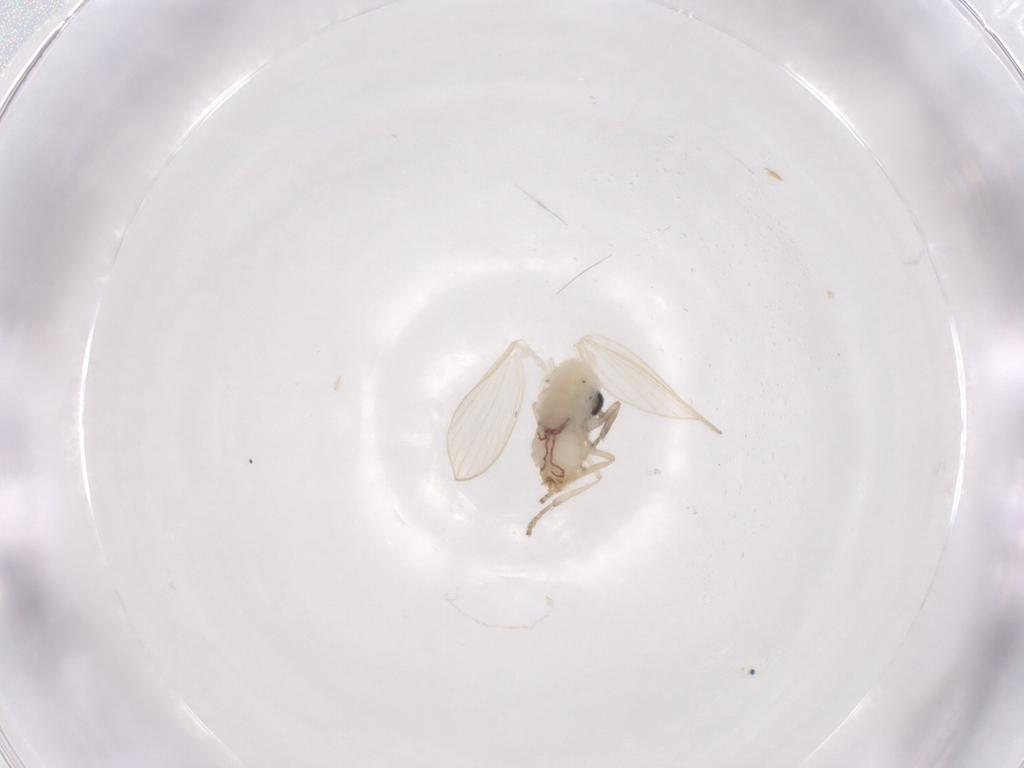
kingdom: Animalia
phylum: Arthropoda
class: Insecta
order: Diptera
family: Psychodidae
